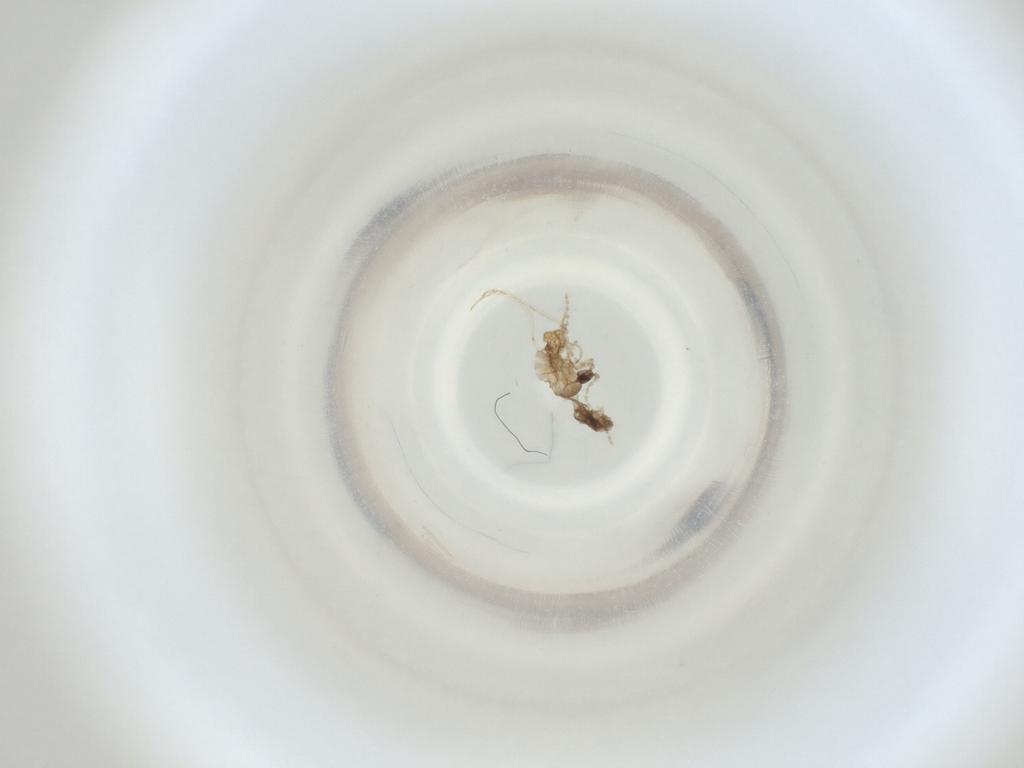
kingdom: Animalia
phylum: Arthropoda
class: Insecta
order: Diptera
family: Cecidomyiidae
